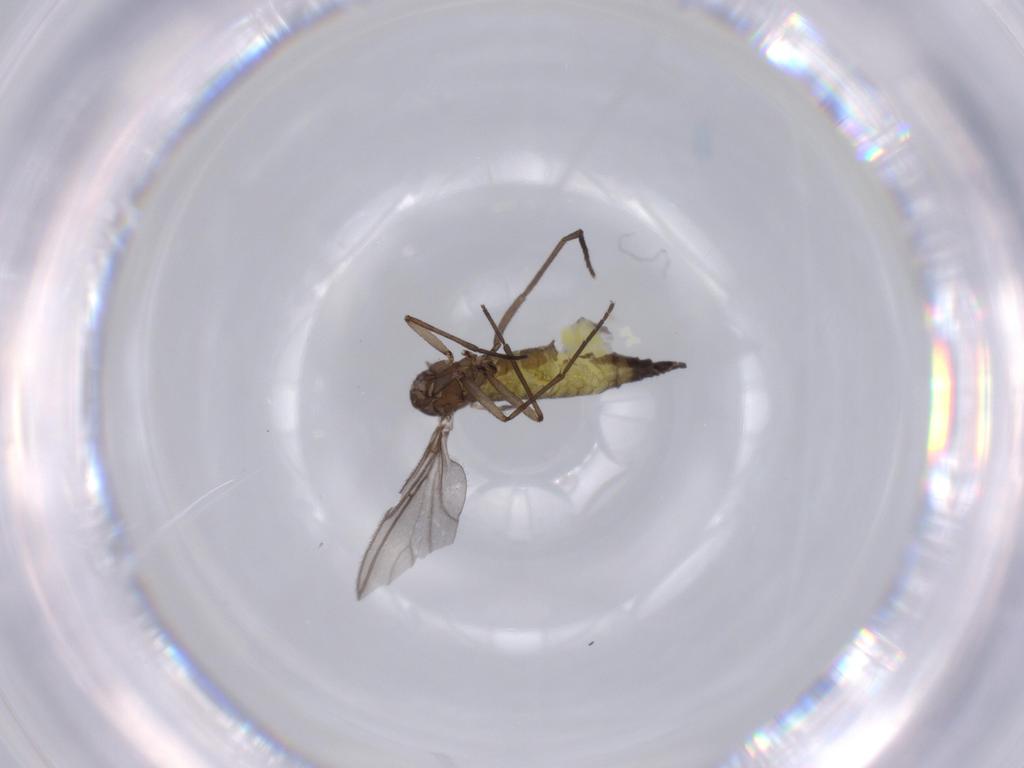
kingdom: Animalia
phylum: Arthropoda
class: Insecta
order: Diptera
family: Sciaridae
